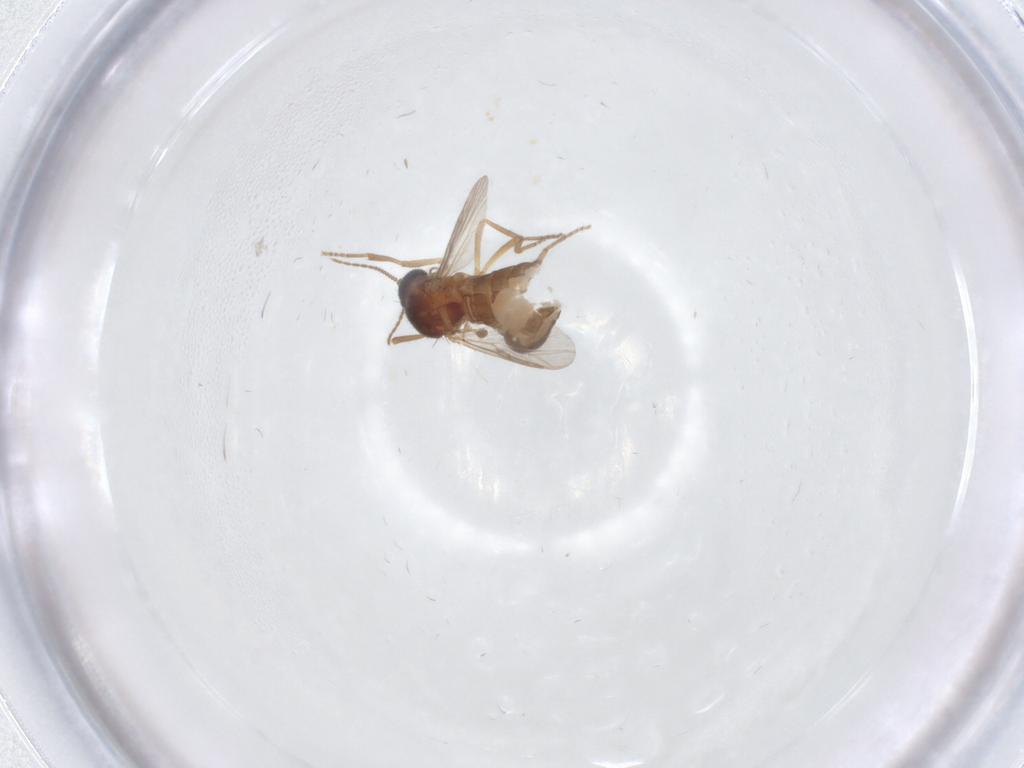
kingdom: Animalia
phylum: Arthropoda
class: Insecta
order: Diptera
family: Ceratopogonidae
